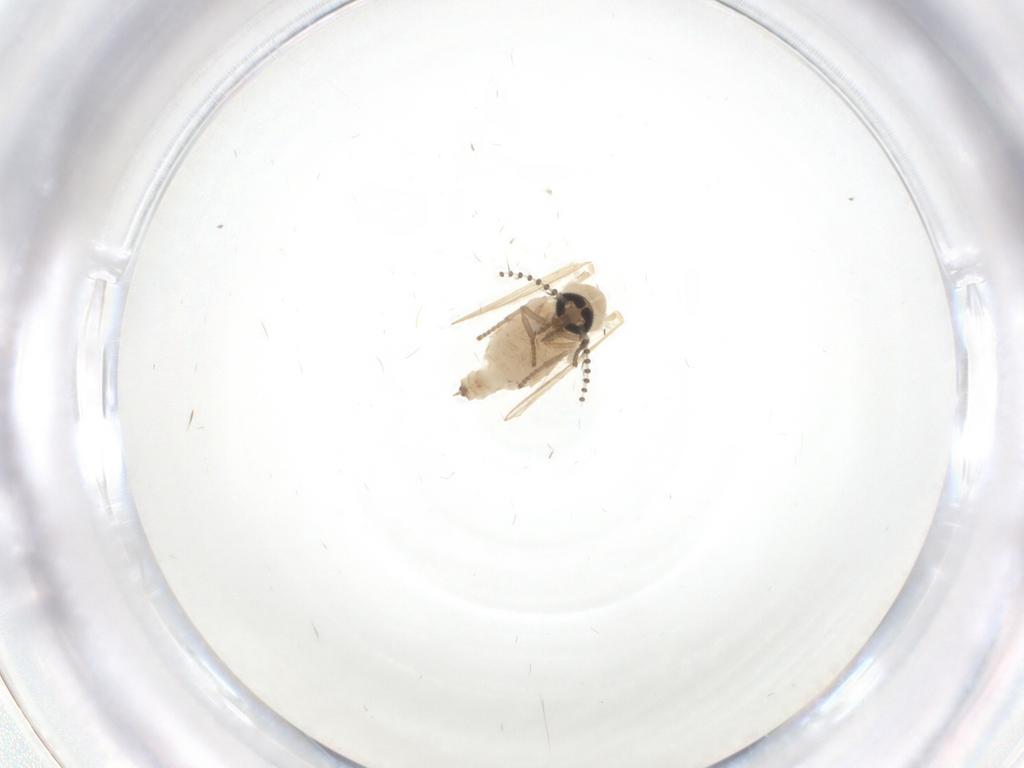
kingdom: Animalia
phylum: Arthropoda
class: Insecta
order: Diptera
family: Psychodidae
